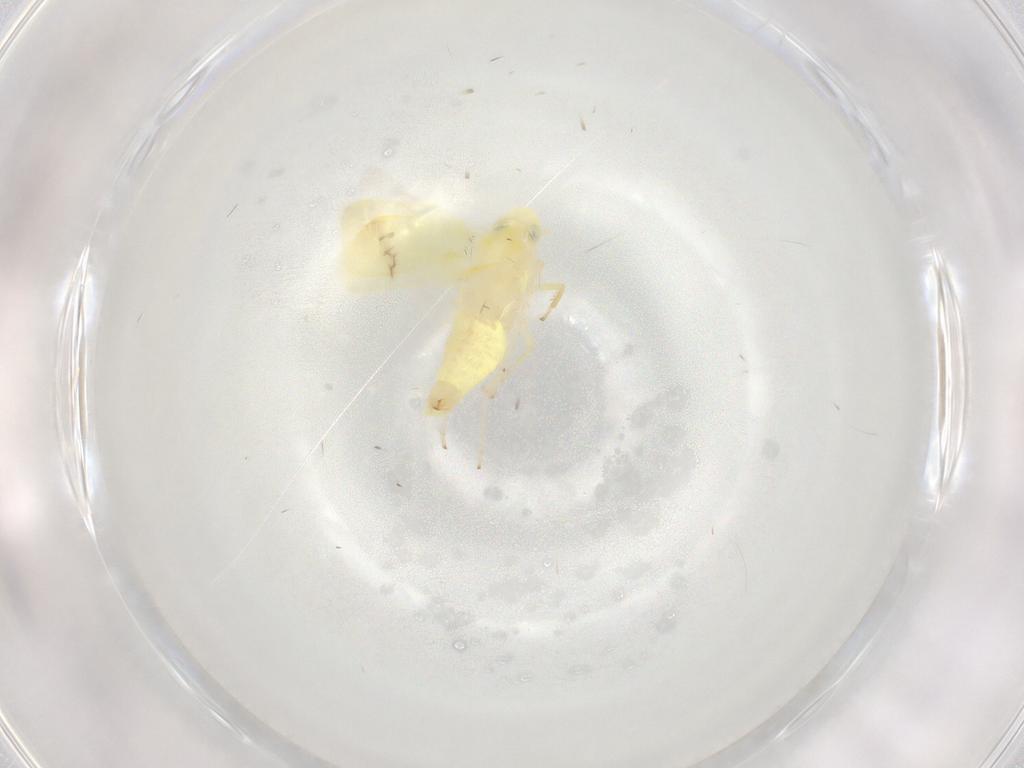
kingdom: Animalia
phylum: Arthropoda
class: Insecta
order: Hemiptera
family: Cicadellidae
